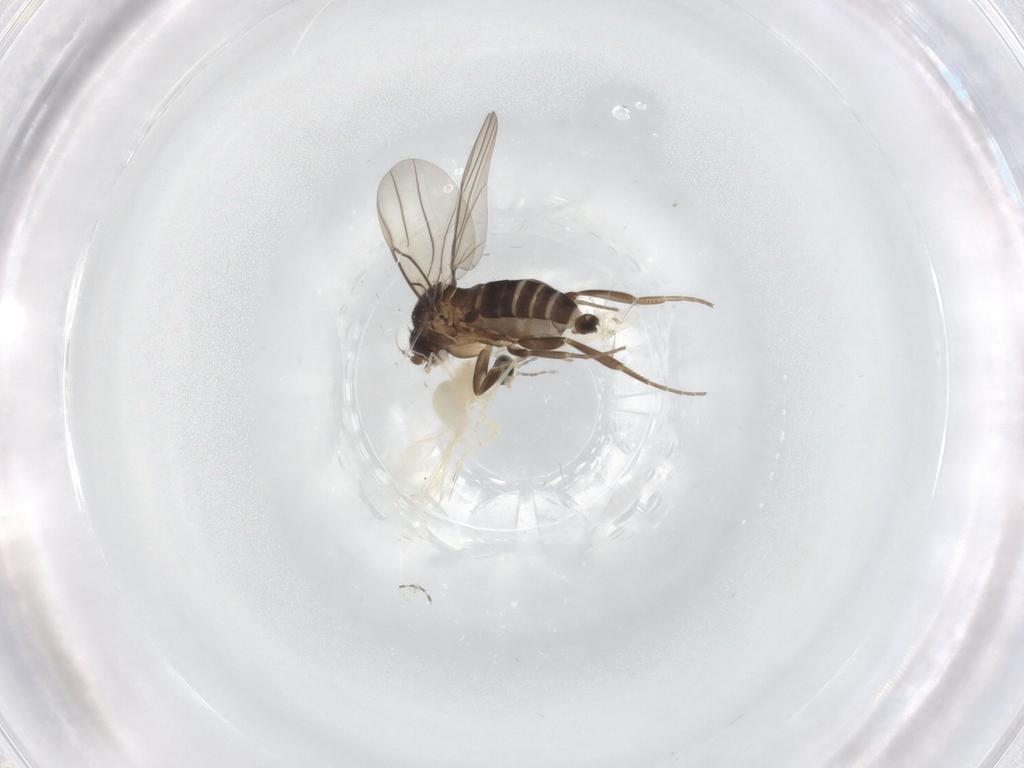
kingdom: Animalia
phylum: Arthropoda
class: Insecta
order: Diptera
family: Phoridae
